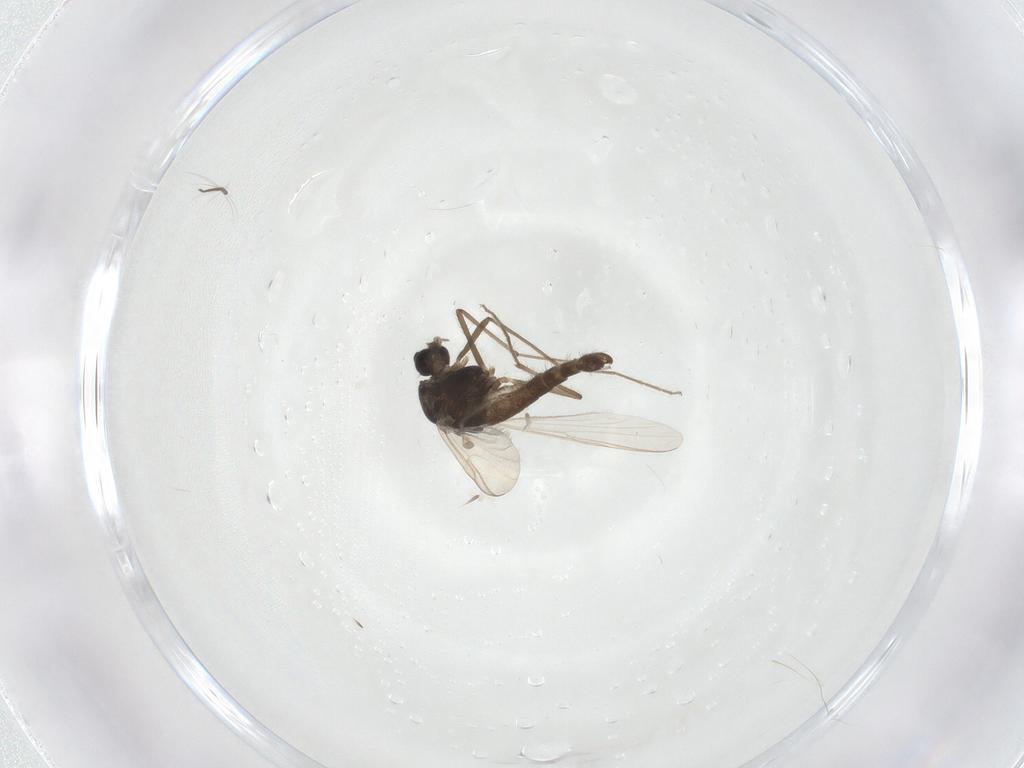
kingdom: Animalia
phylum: Arthropoda
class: Insecta
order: Diptera
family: Chironomidae
